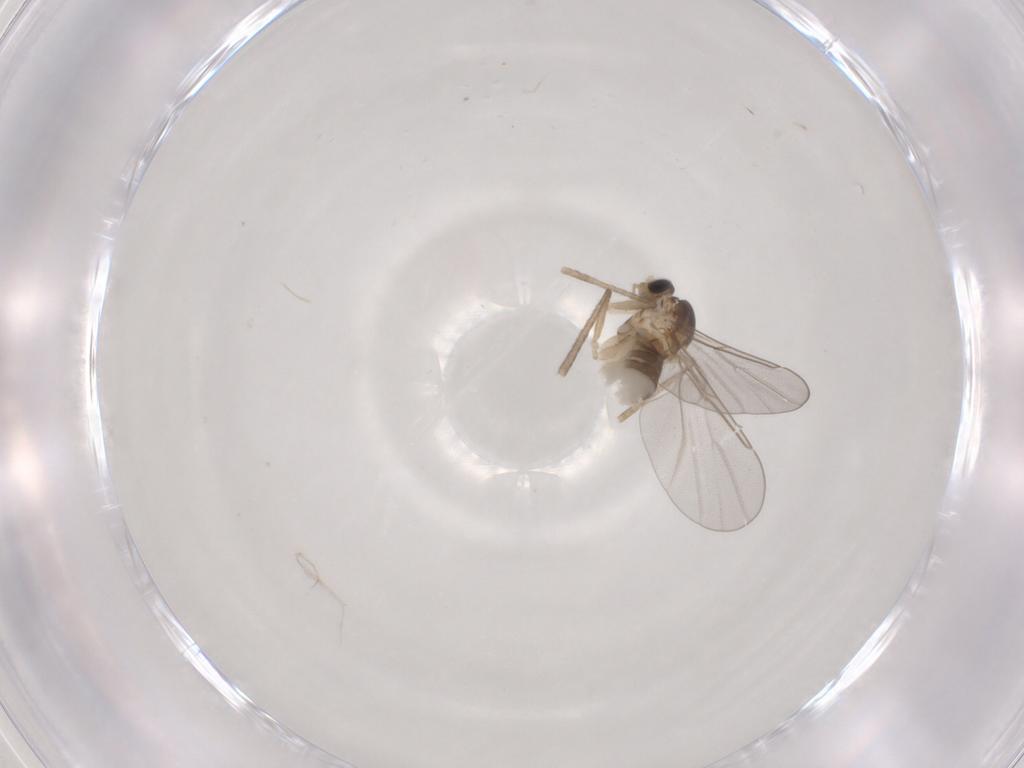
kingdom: Animalia
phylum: Arthropoda
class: Insecta
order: Diptera
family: Cecidomyiidae
